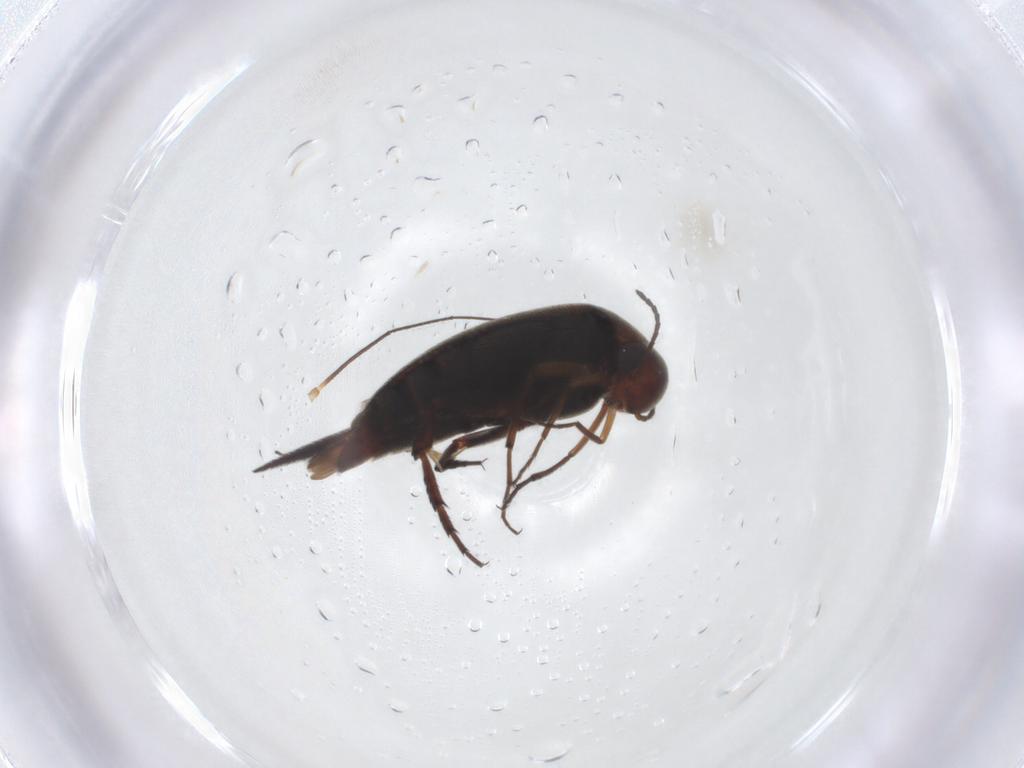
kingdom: Animalia
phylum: Arthropoda
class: Insecta
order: Coleoptera
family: Mordellidae
